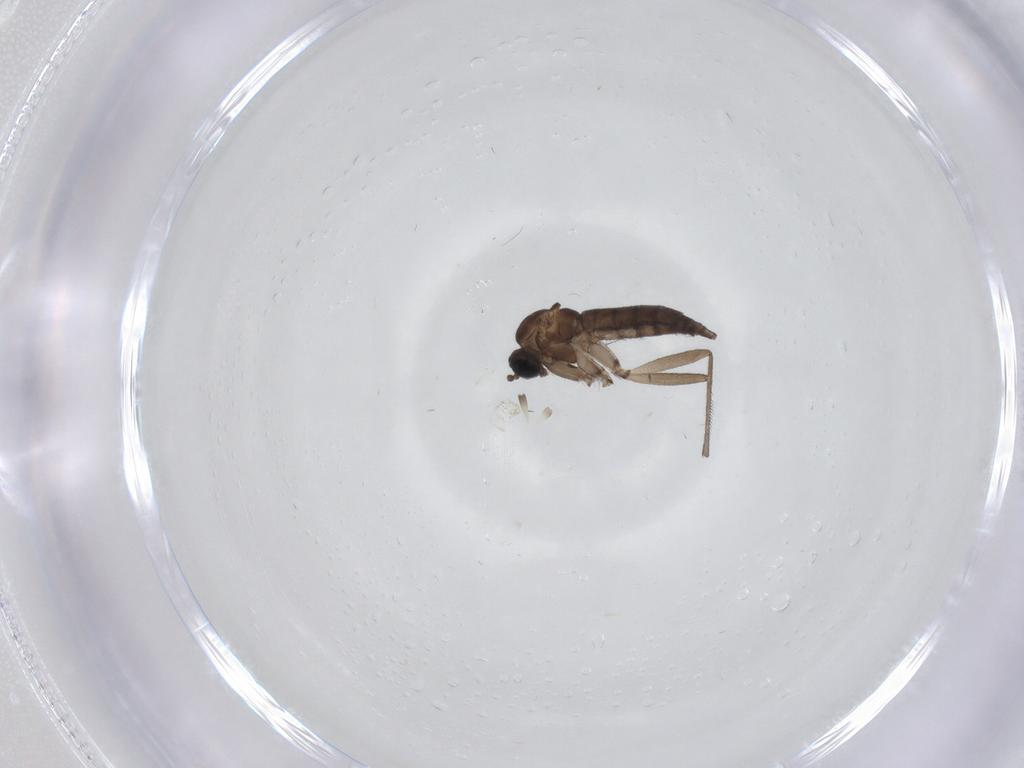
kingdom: Animalia
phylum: Arthropoda
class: Insecta
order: Diptera
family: Sciaridae
